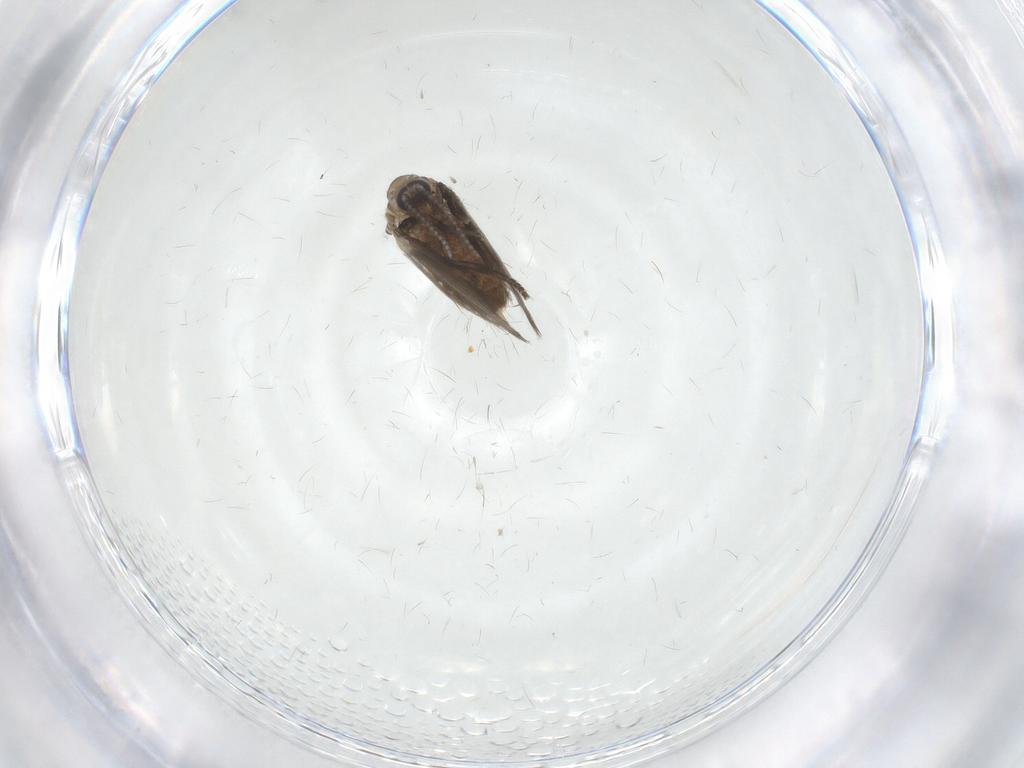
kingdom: Animalia
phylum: Arthropoda
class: Insecta
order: Diptera
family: Psychodidae
